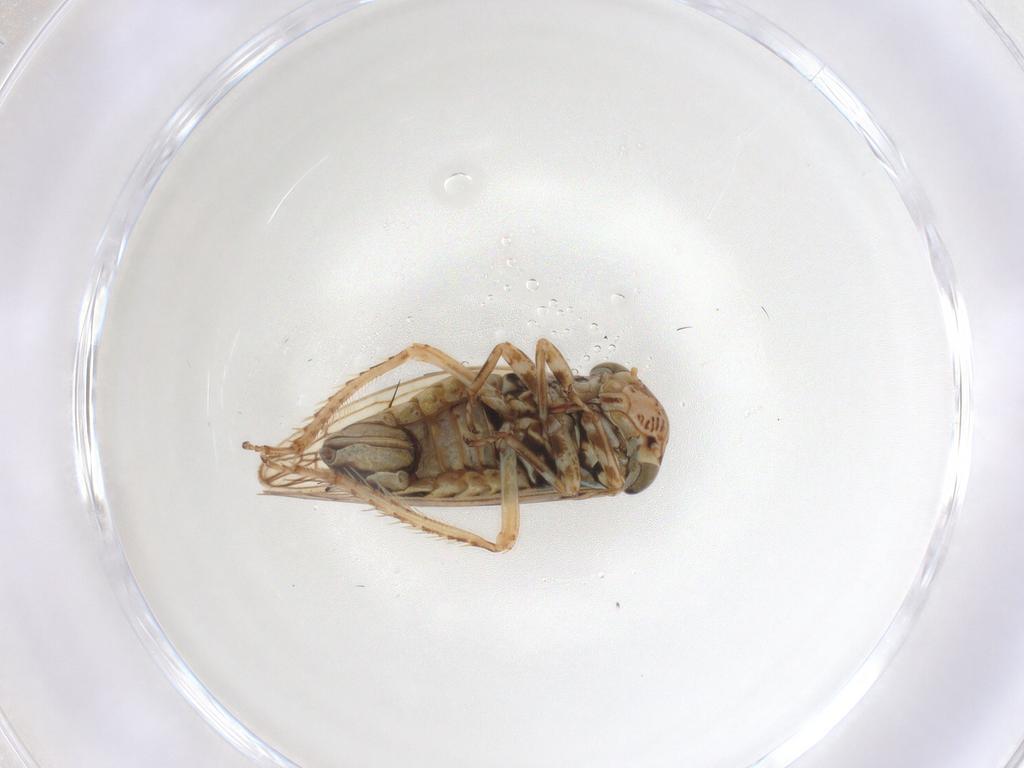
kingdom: Animalia
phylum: Arthropoda
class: Insecta
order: Hemiptera
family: Cicadellidae
